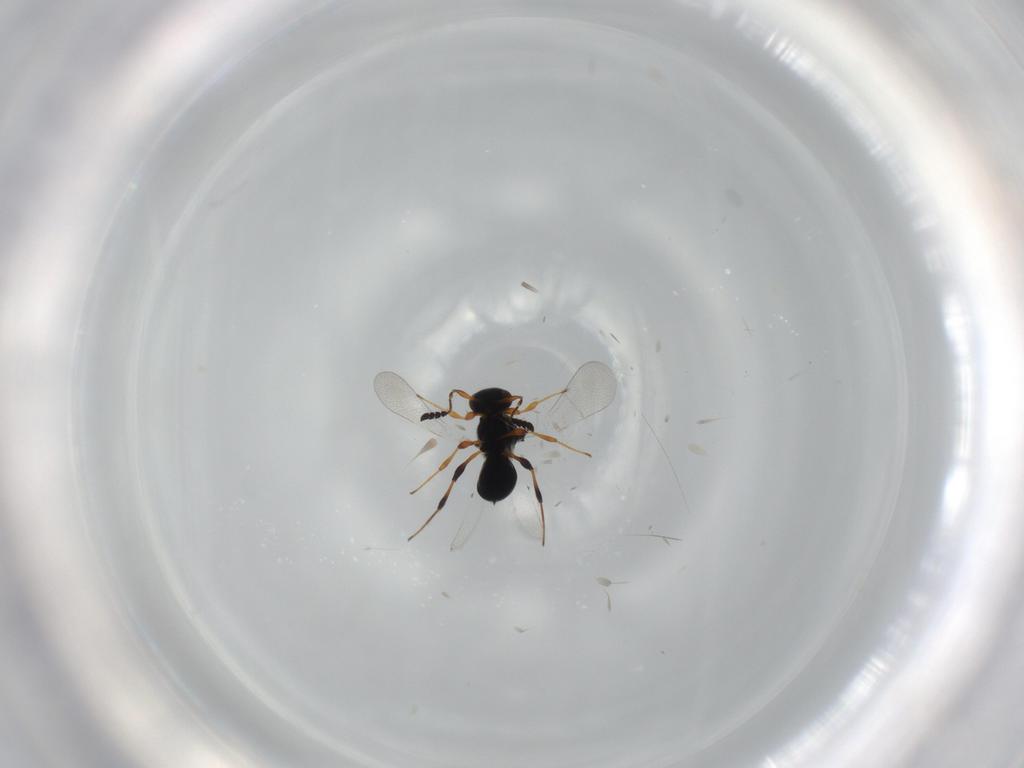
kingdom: Animalia
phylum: Arthropoda
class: Insecta
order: Hymenoptera
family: Platygastridae
